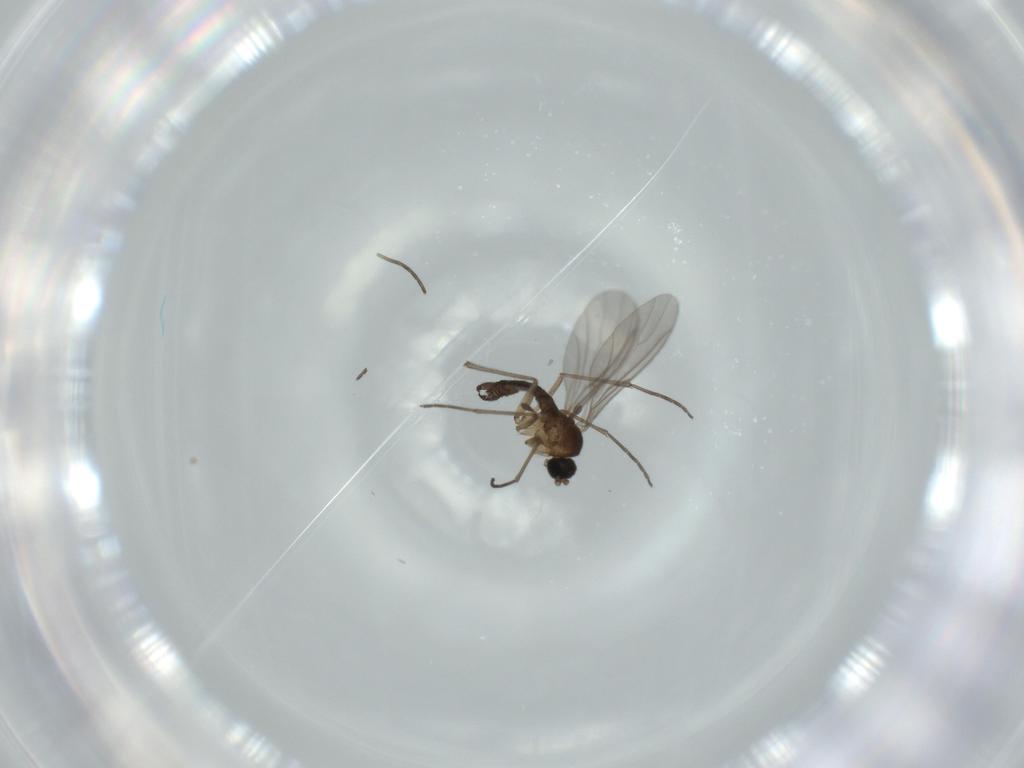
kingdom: Animalia
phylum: Arthropoda
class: Insecta
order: Diptera
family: Sciaridae
